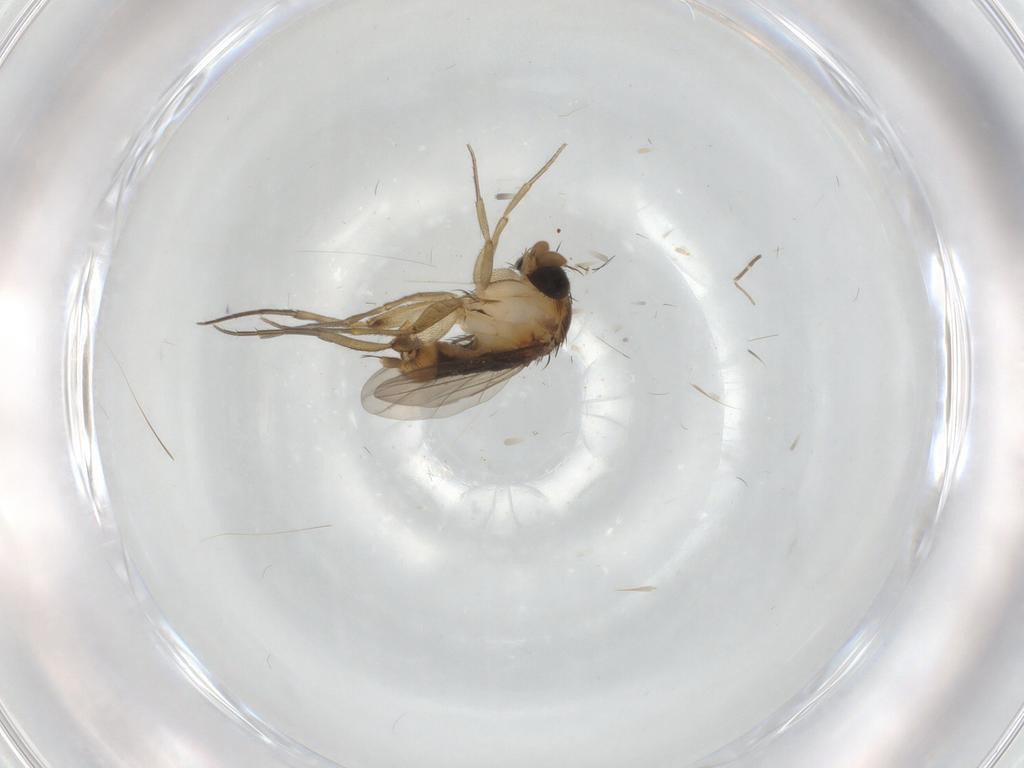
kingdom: Animalia
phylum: Arthropoda
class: Insecta
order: Diptera
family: Phoridae
